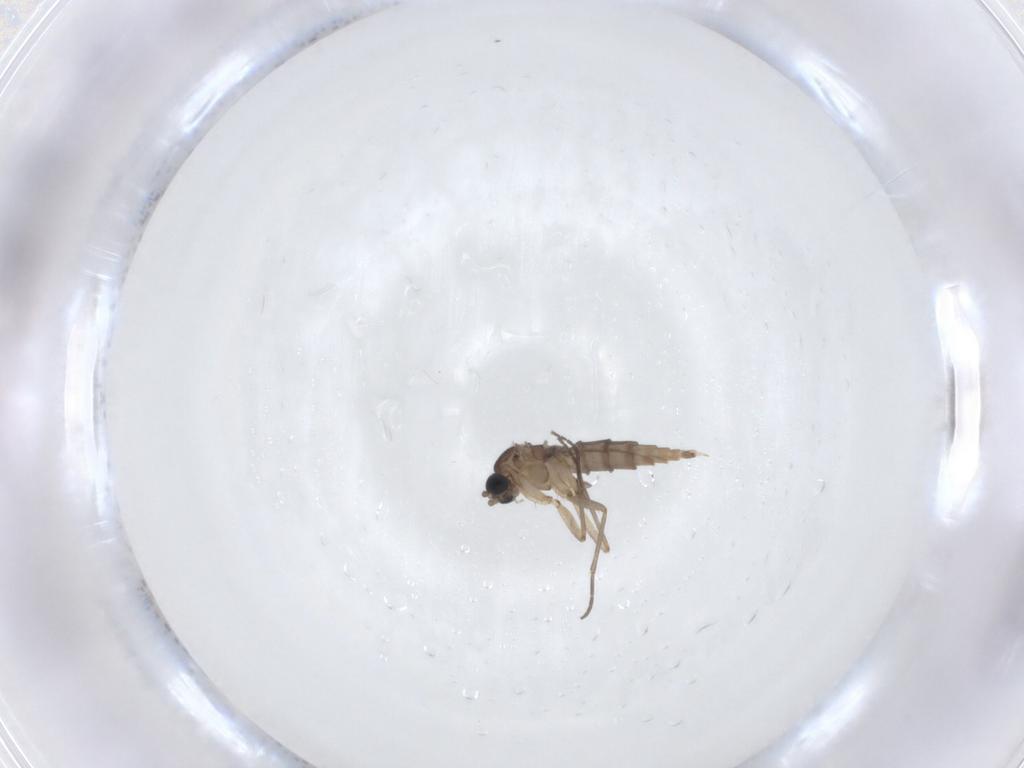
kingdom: Animalia
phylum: Arthropoda
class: Insecta
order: Diptera
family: Sciaridae
